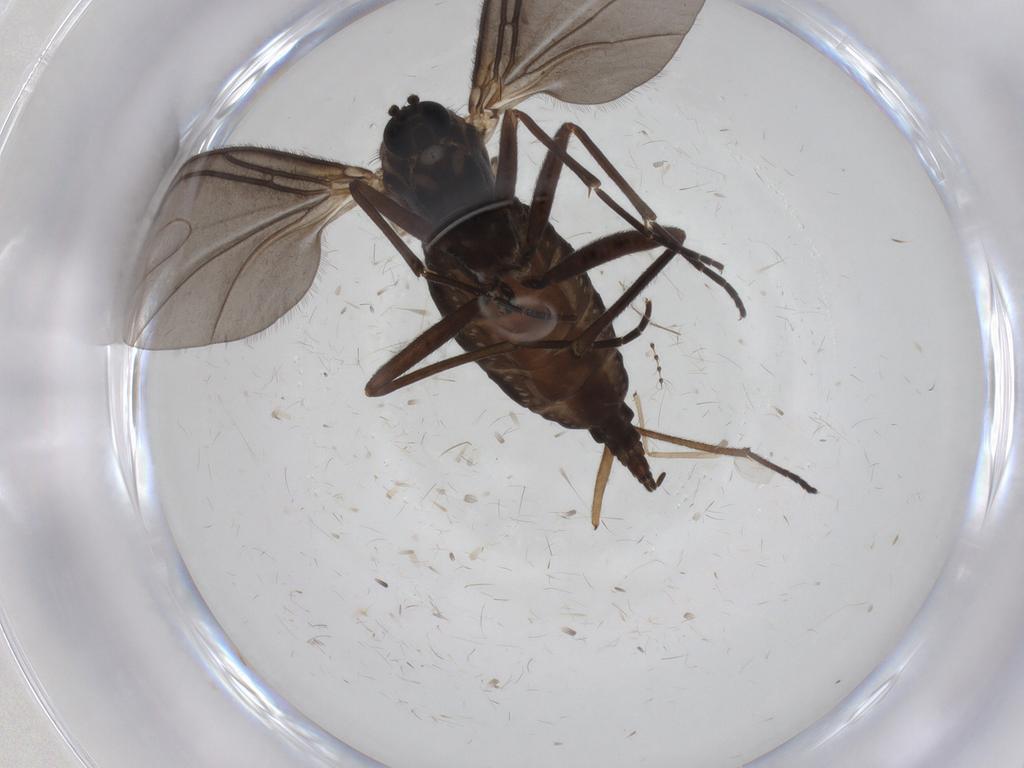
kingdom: Animalia
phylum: Arthropoda
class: Insecta
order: Diptera
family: Sciaridae
